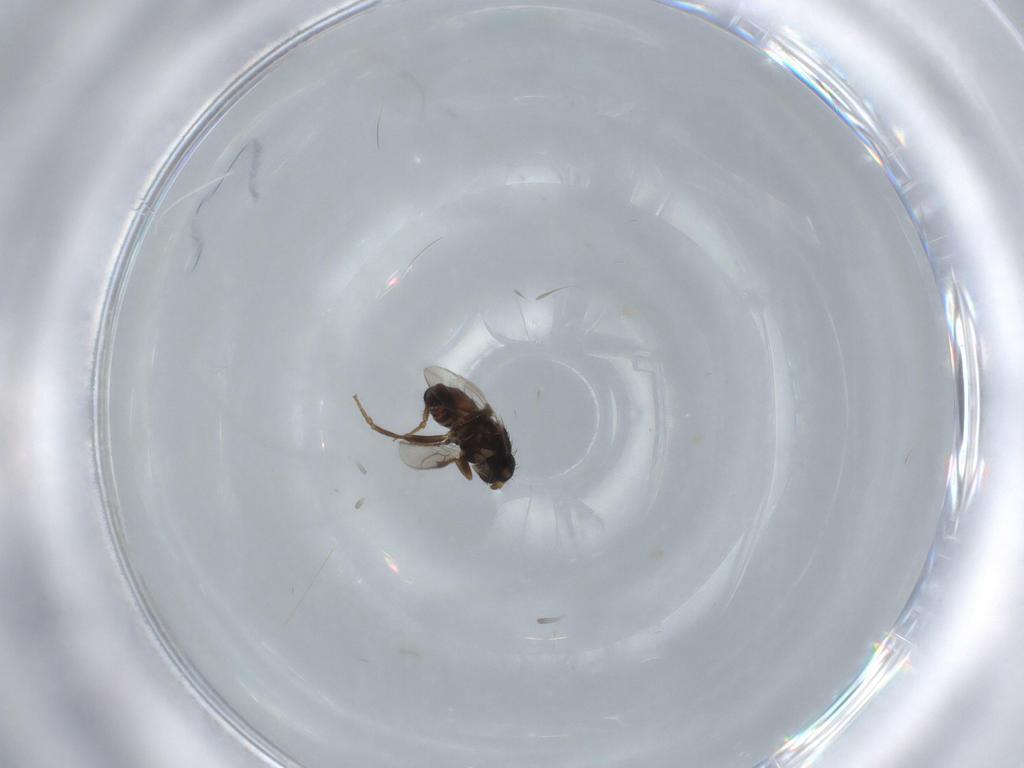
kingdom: Animalia
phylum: Arthropoda
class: Insecta
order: Diptera
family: Sphaeroceridae
